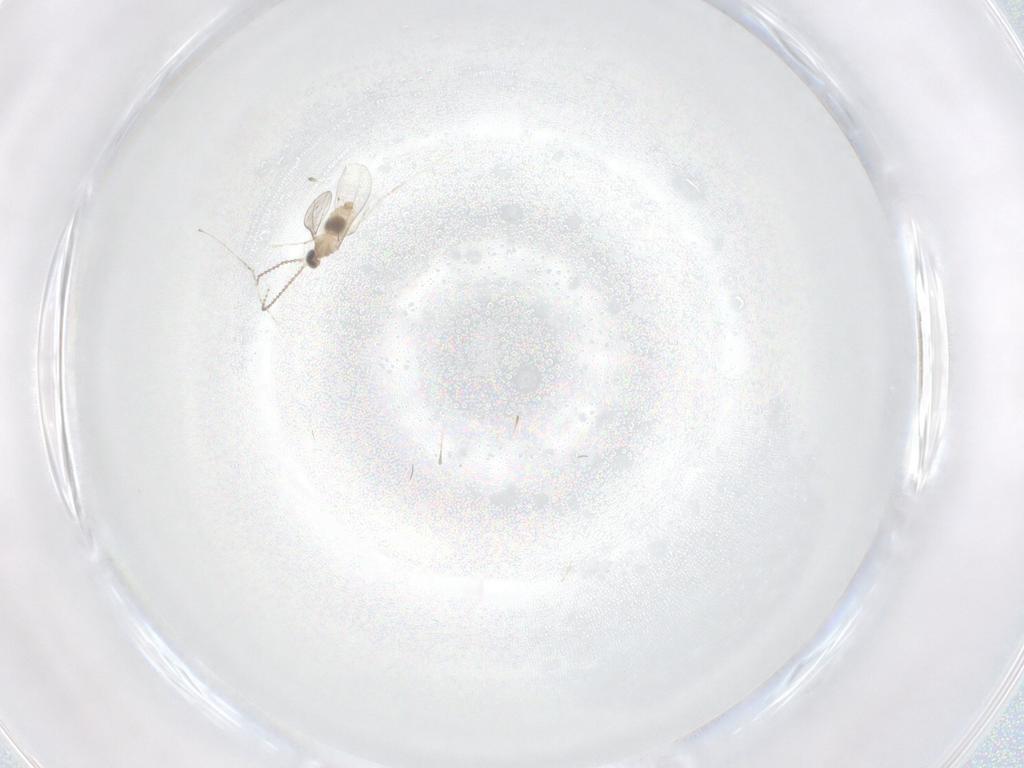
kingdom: Animalia
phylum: Arthropoda
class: Insecta
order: Diptera
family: Cecidomyiidae
